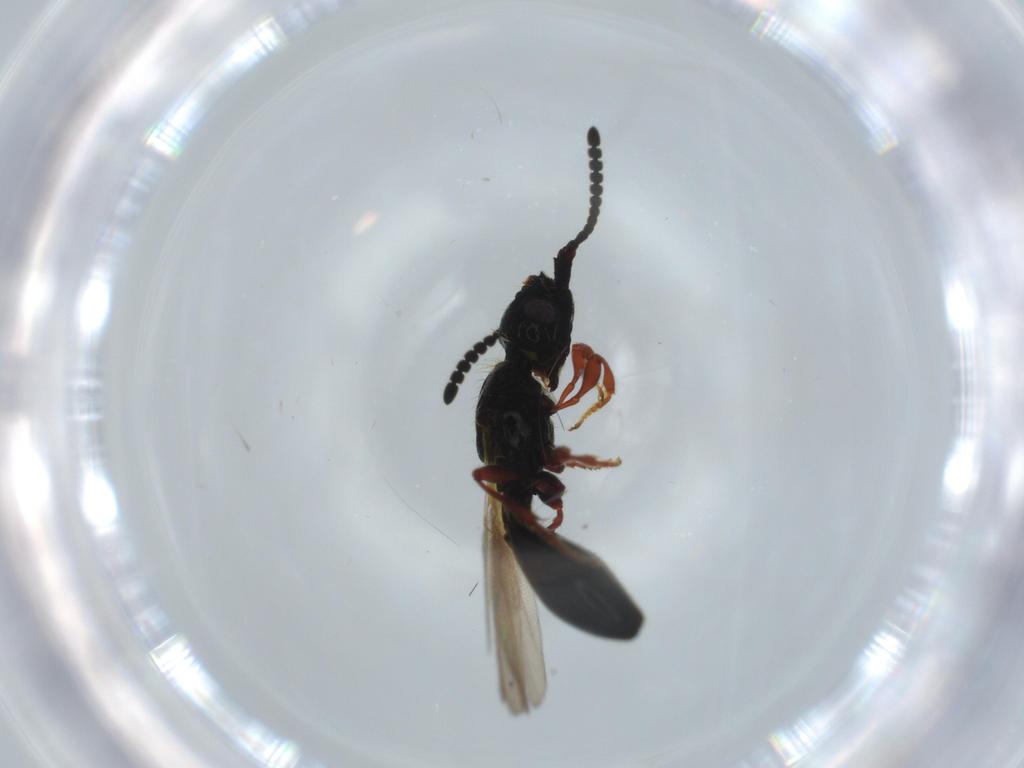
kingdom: Animalia
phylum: Arthropoda
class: Insecta
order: Hymenoptera
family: Diapriidae
